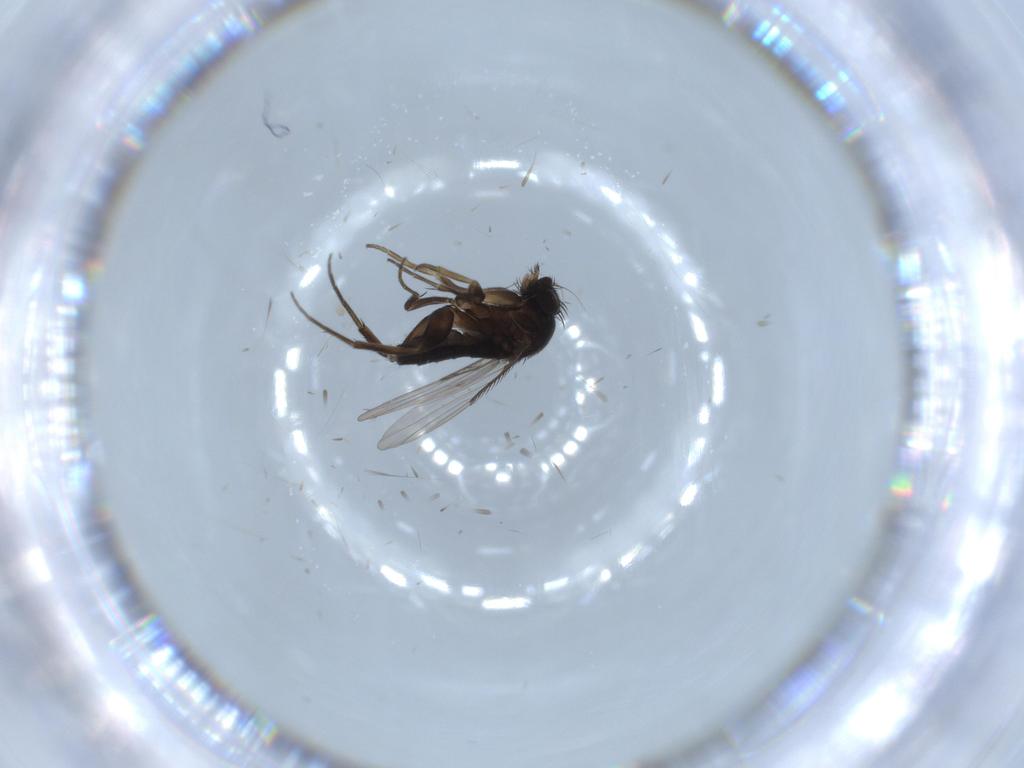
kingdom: Animalia
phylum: Arthropoda
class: Insecta
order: Diptera
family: Phoridae
